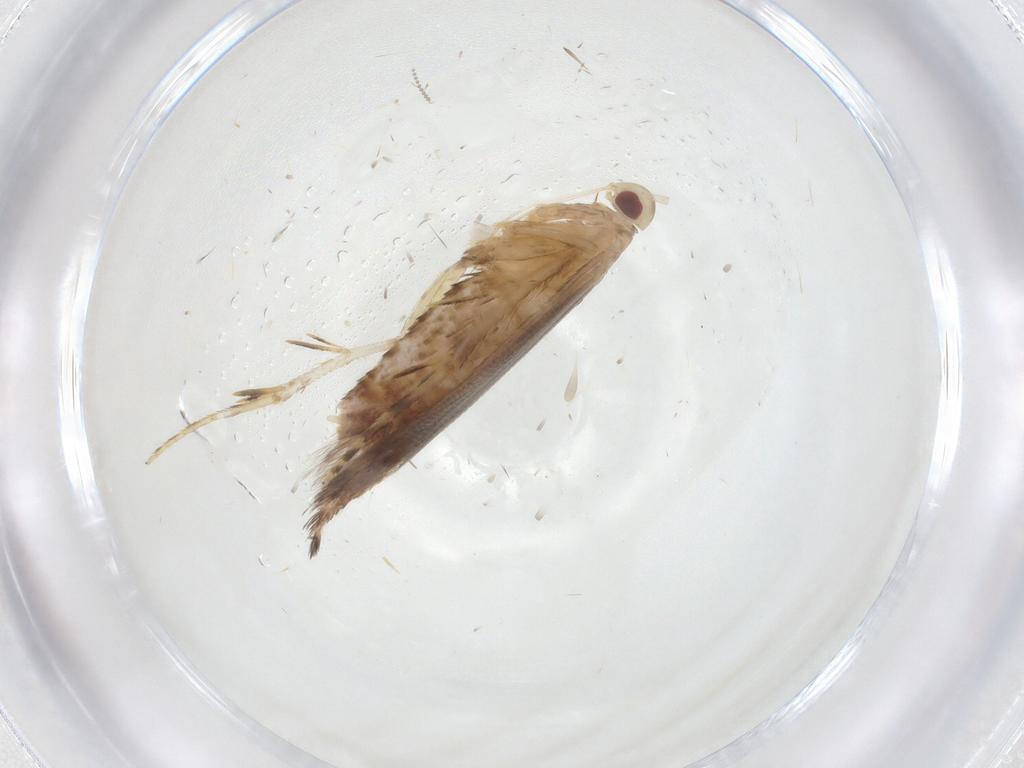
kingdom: Animalia
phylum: Arthropoda
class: Insecta
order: Lepidoptera
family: Cosmopterigidae
